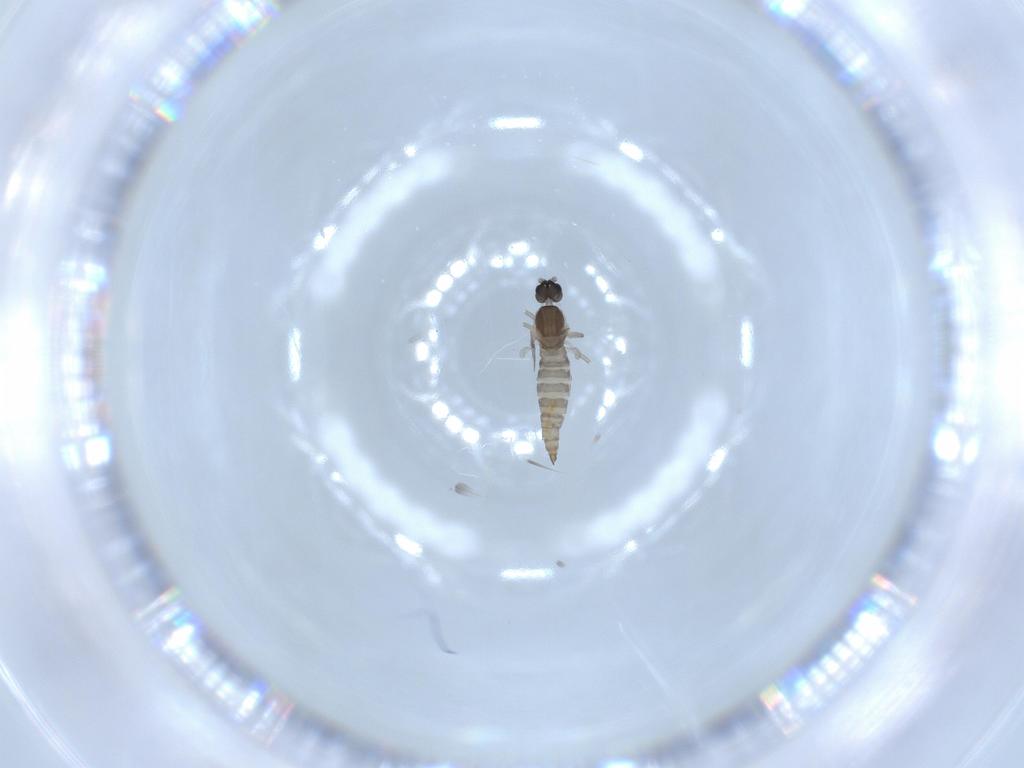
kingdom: Animalia
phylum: Arthropoda
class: Insecta
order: Diptera
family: Cecidomyiidae
